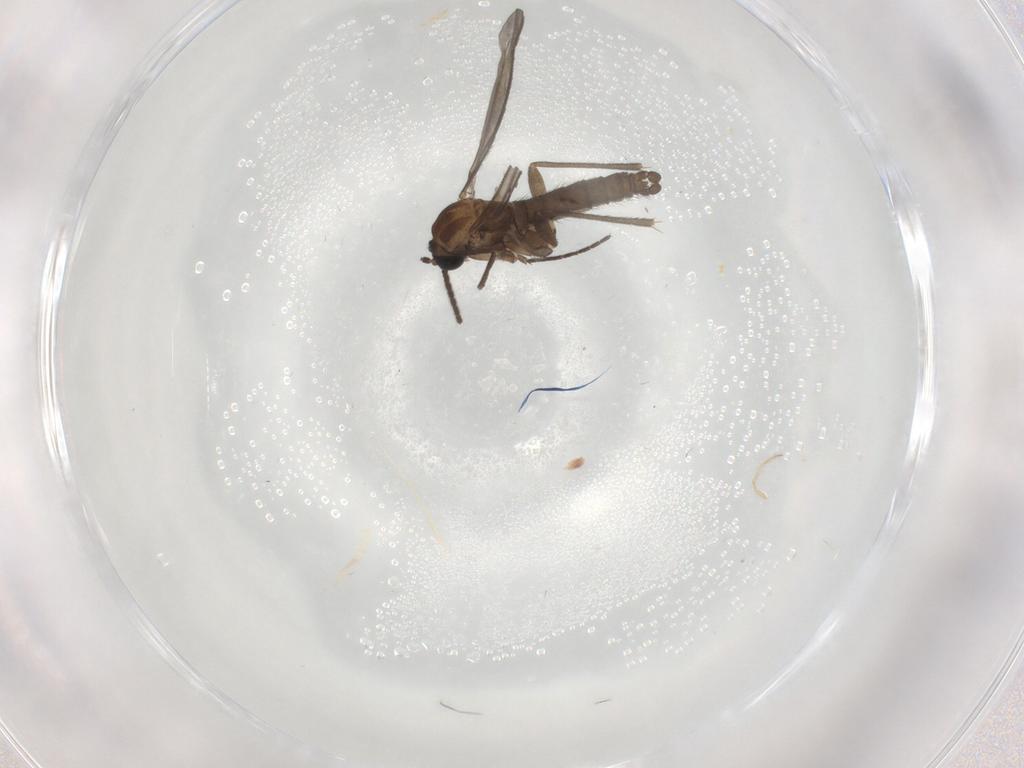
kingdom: Animalia
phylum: Arthropoda
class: Insecta
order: Diptera
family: Sciaridae
